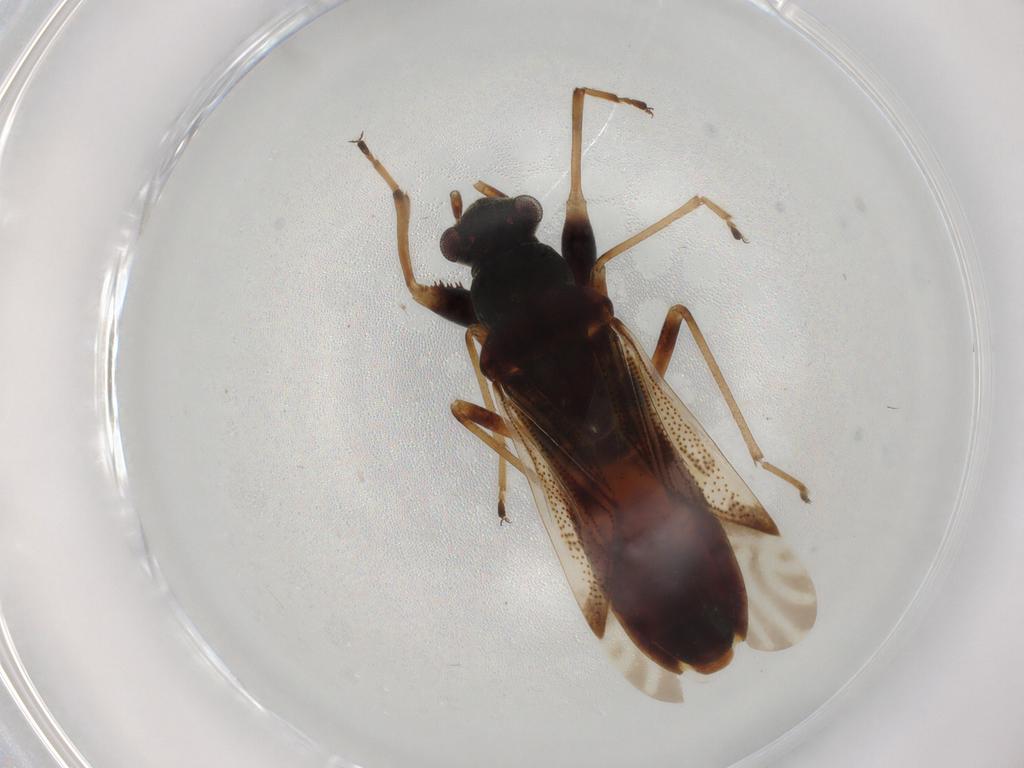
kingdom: Animalia
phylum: Arthropoda
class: Insecta
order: Hemiptera
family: Rhyparochromidae
